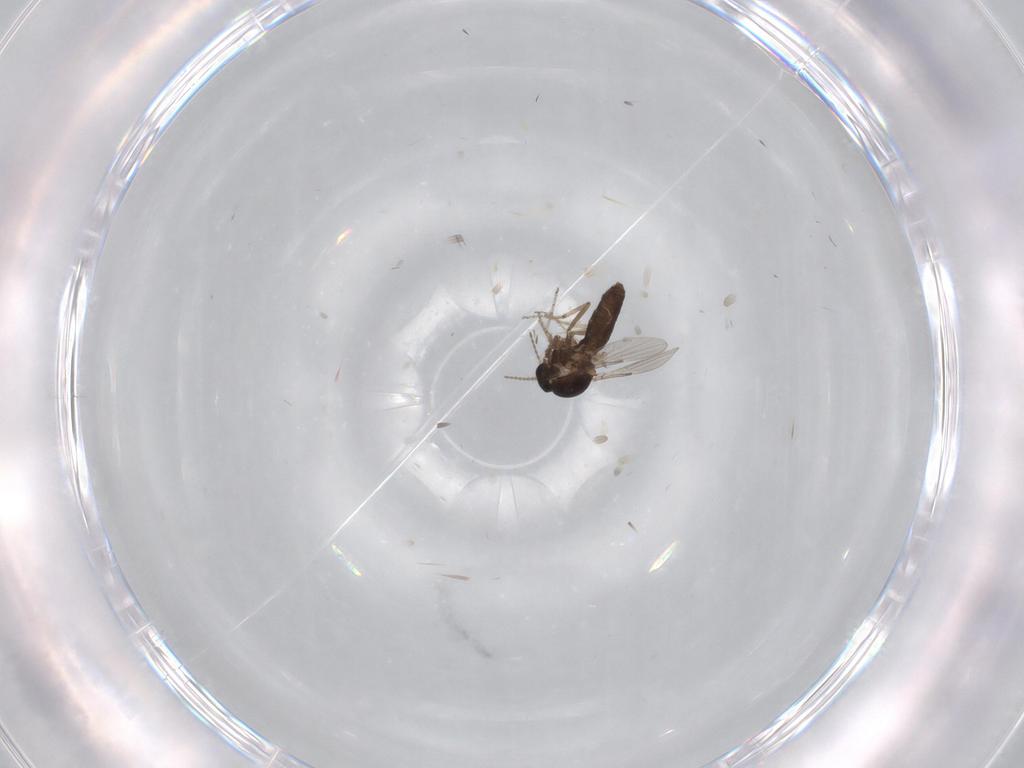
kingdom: Animalia
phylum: Arthropoda
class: Insecta
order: Diptera
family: Ceratopogonidae
